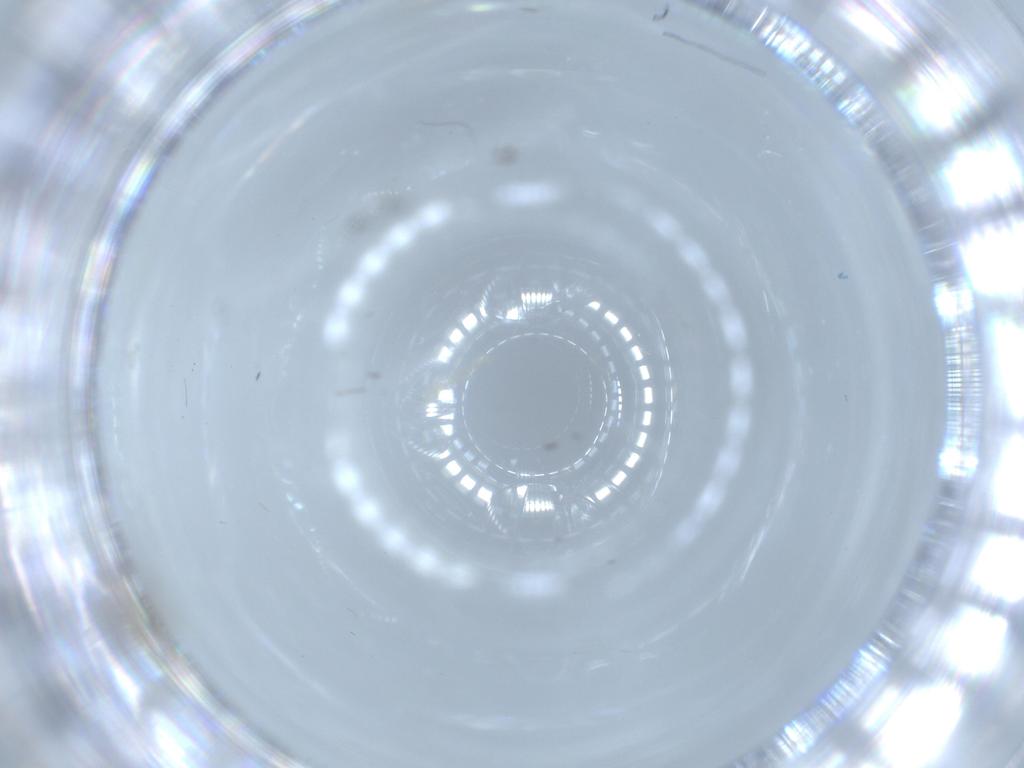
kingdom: Animalia
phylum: Arthropoda
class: Insecta
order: Diptera
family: Cecidomyiidae
